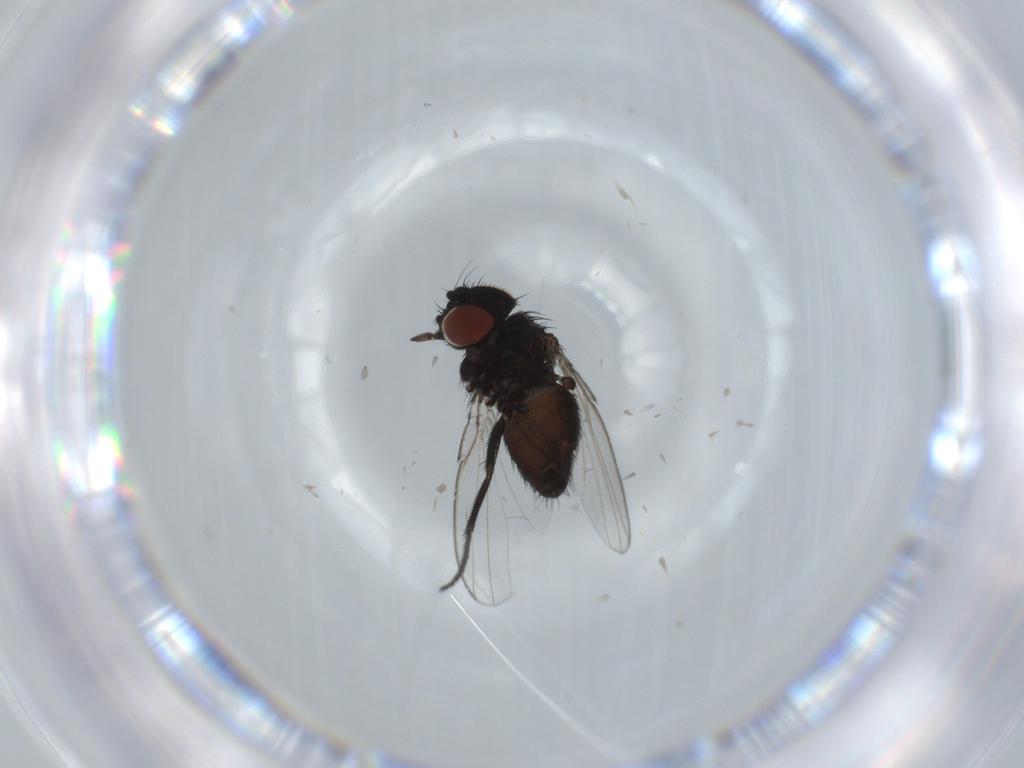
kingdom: Animalia
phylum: Arthropoda
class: Insecta
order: Diptera
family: Milichiidae
